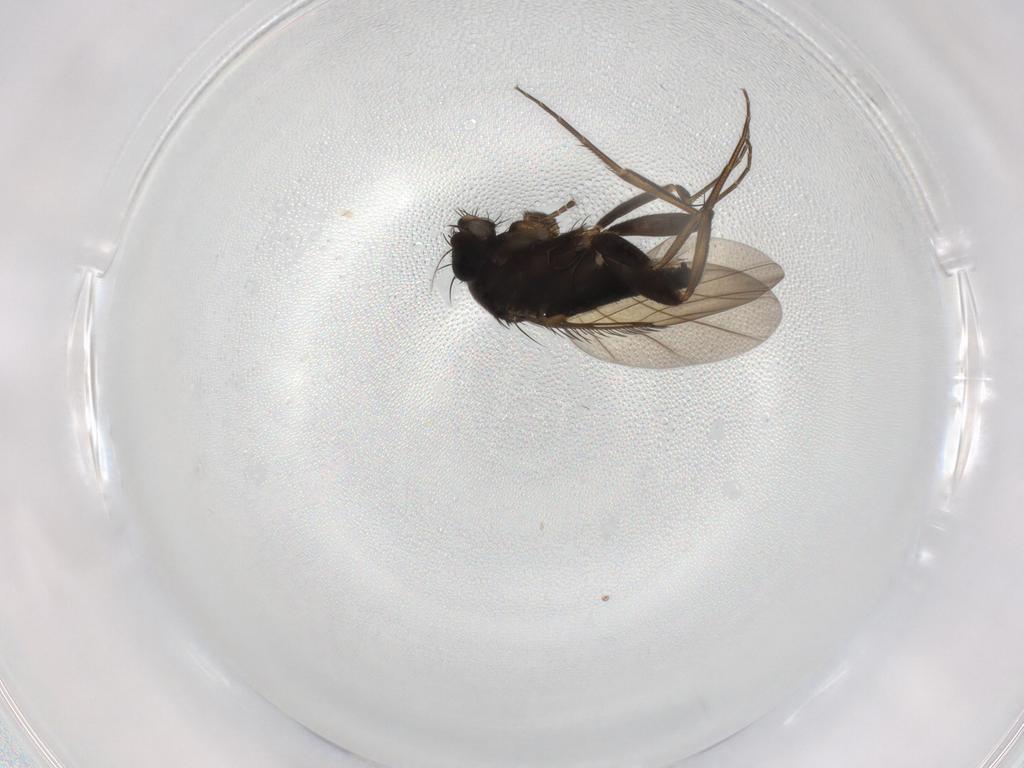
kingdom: Animalia
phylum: Arthropoda
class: Insecta
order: Diptera
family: Phoridae
